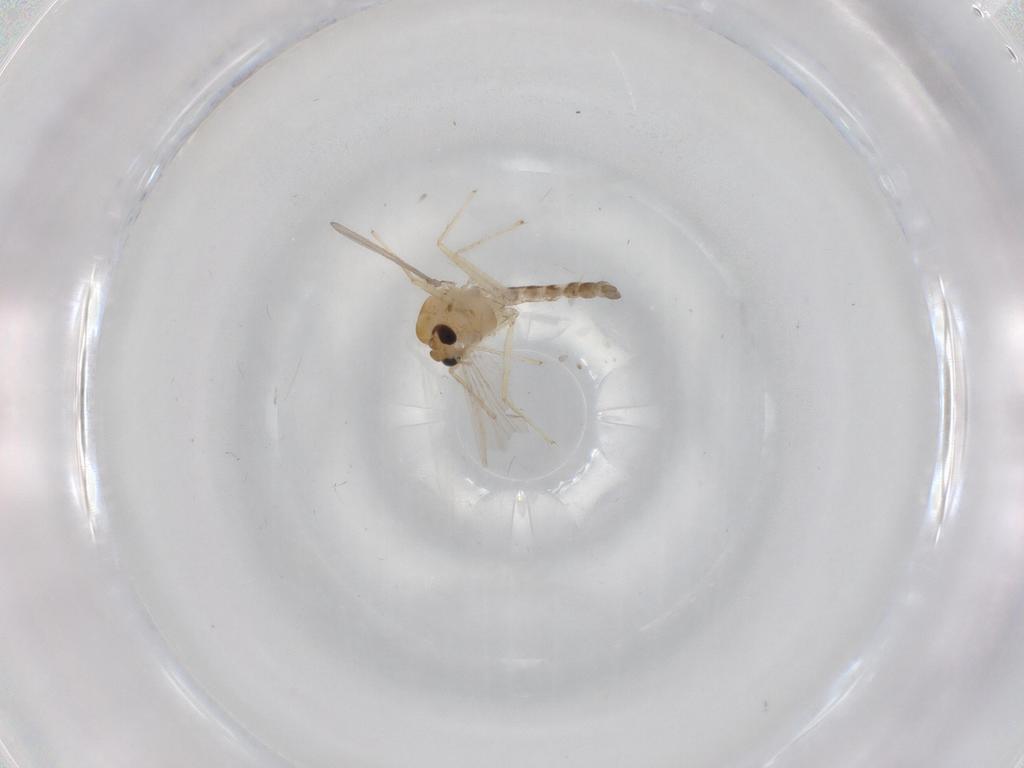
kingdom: Animalia
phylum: Arthropoda
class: Insecta
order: Diptera
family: Chironomidae
